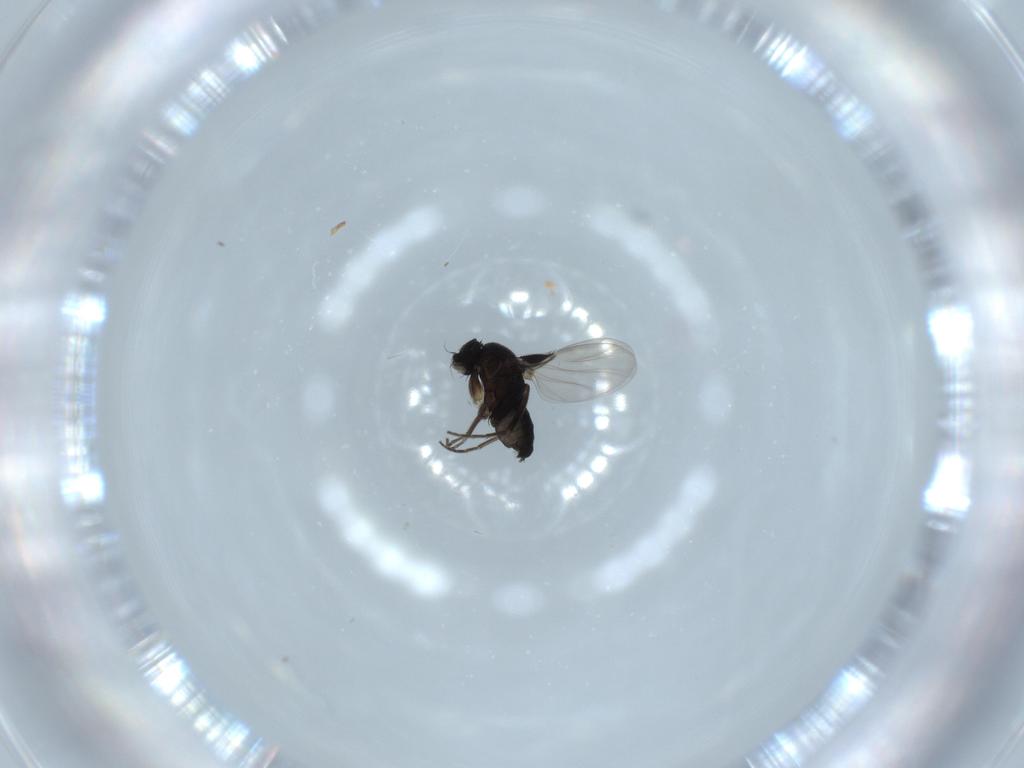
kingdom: Animalia
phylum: Arthropoda
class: Insecta
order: Diptera
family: Phoridae
